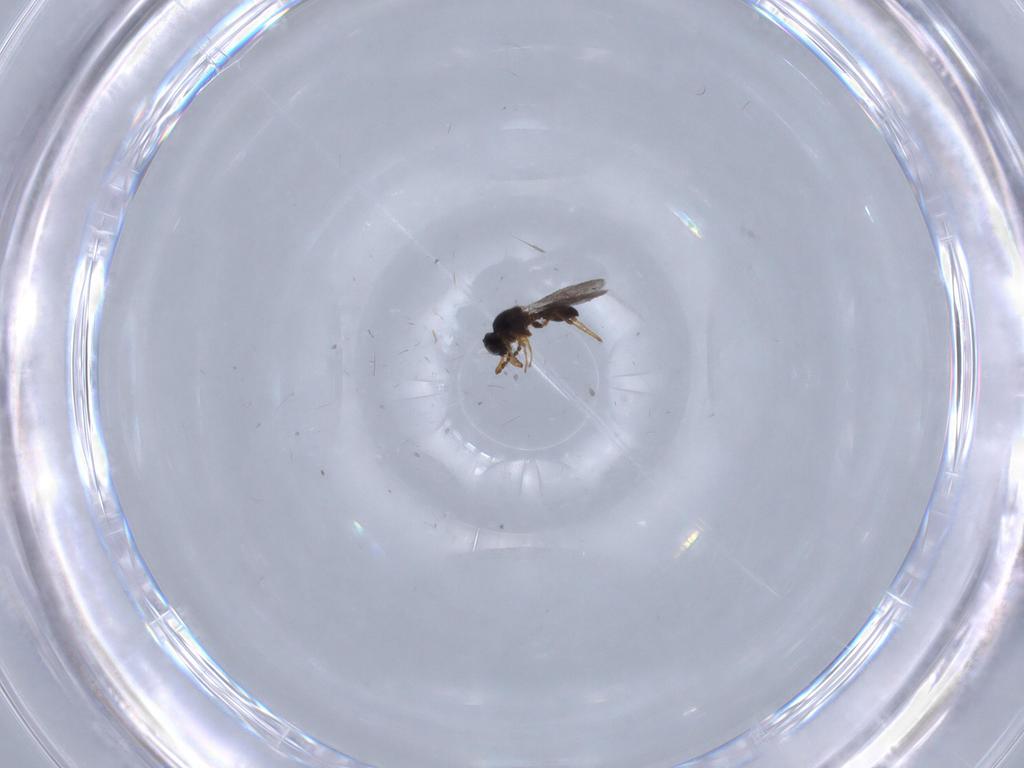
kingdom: Animalia
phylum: Arthropoda
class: Insecta
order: Hymenoptera
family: Platygastridae
